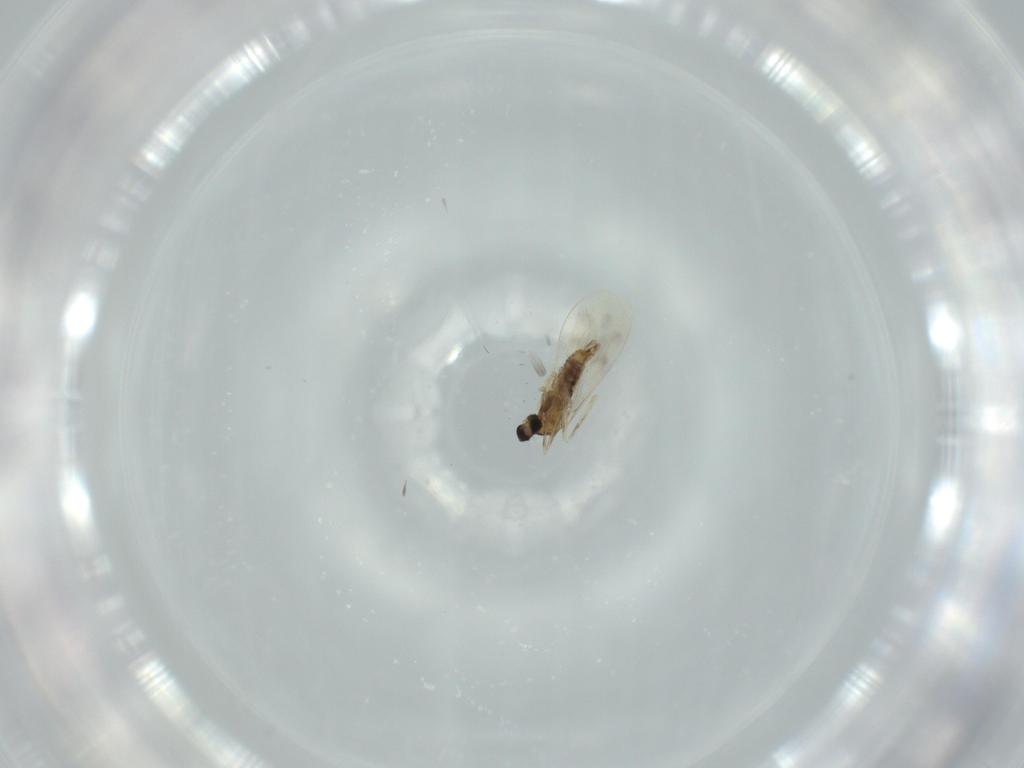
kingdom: Animalia
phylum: Arthropoda
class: Insecta
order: Diptera
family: Cecidomyiidae
